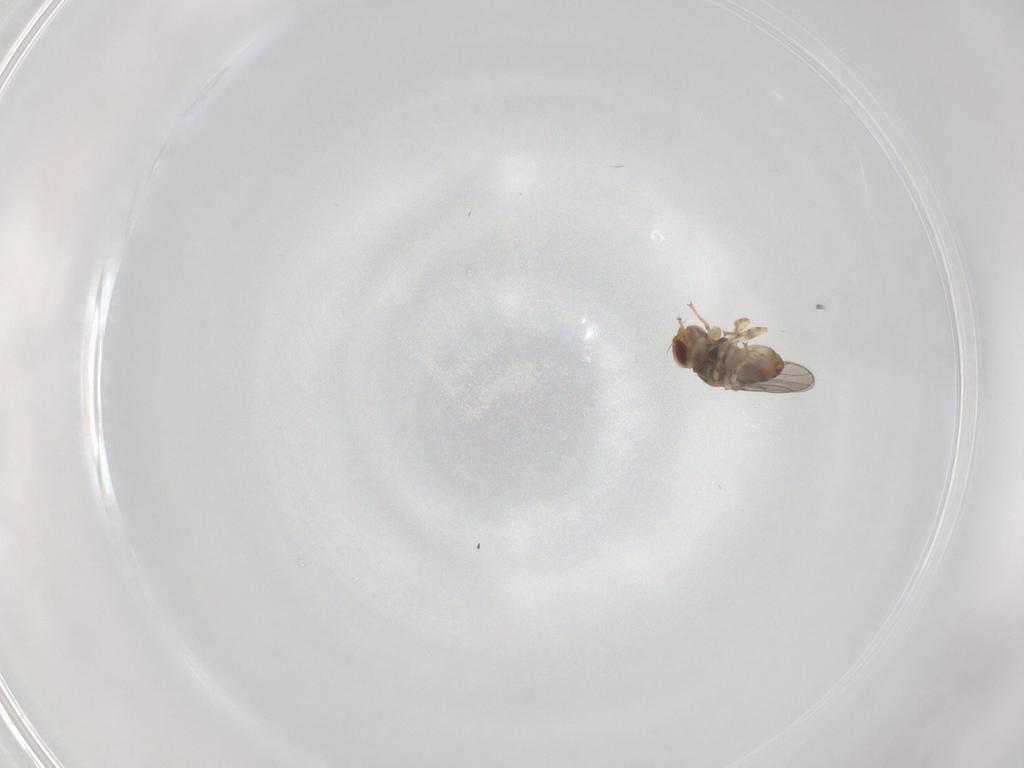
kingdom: Animalia
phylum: Arthropoda
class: Insecta
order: Diptera
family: Chloropidae
